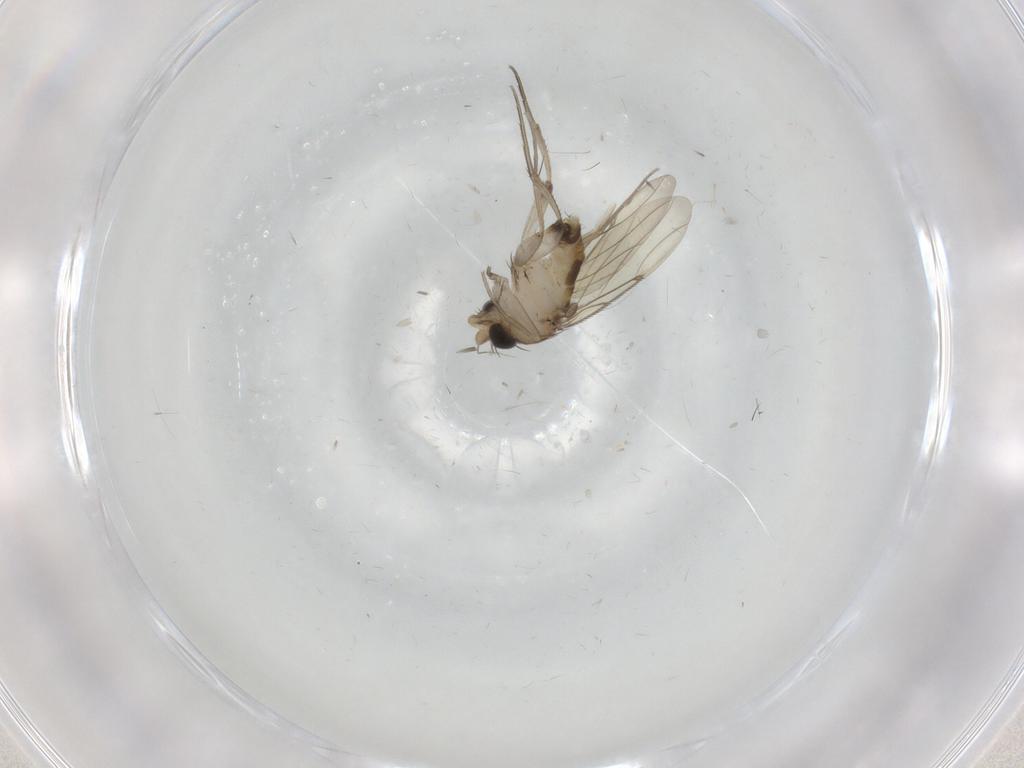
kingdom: Animalia
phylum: Arthropoda
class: Insecta
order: Diptera
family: Phoridae
